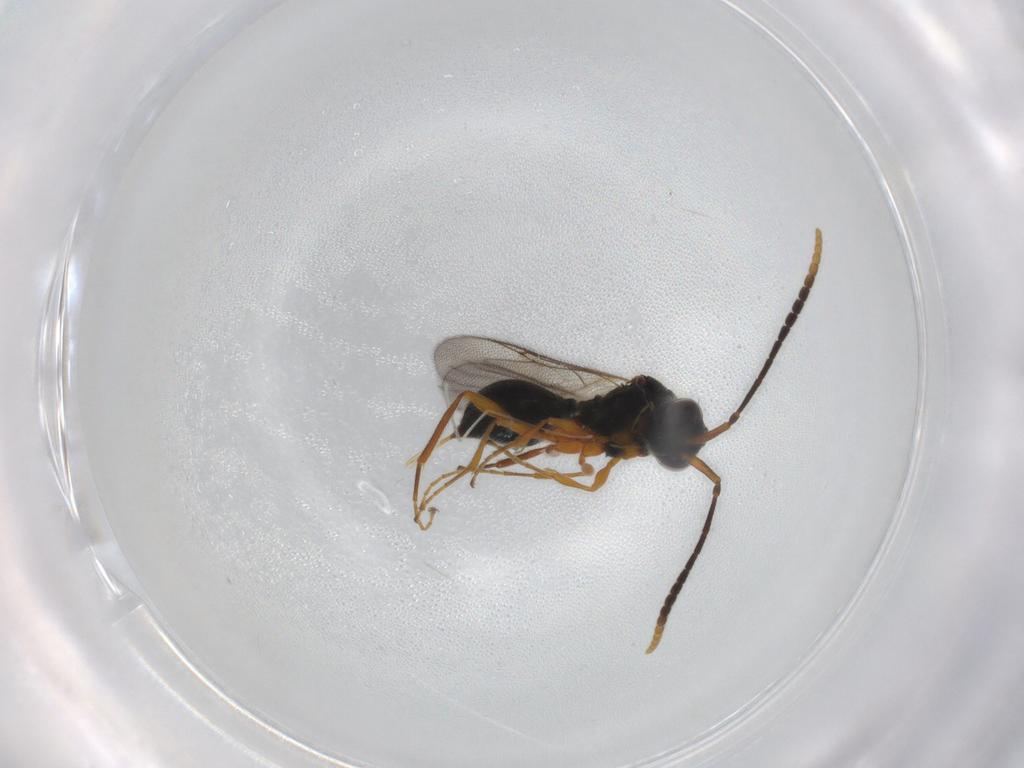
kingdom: Animalia
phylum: Arthropoda
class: Insecta
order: Hymenoptera
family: Diapriidae
